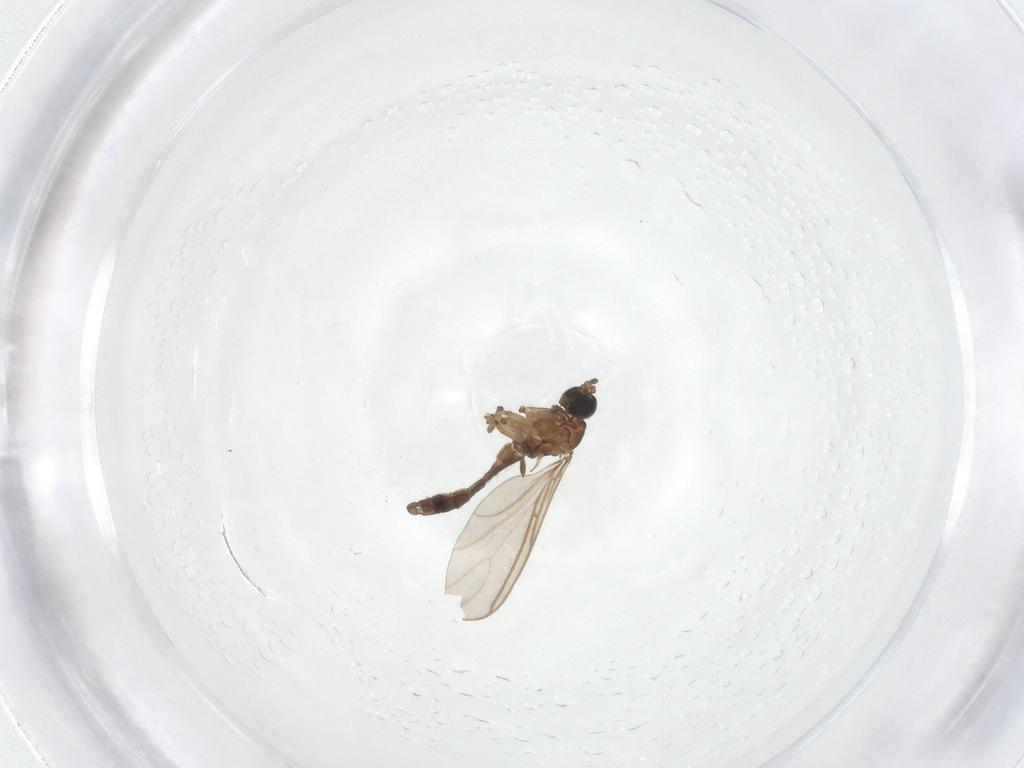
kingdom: Animalia
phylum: Arthropoda
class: Insecta
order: Diptera
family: Sciaridae
